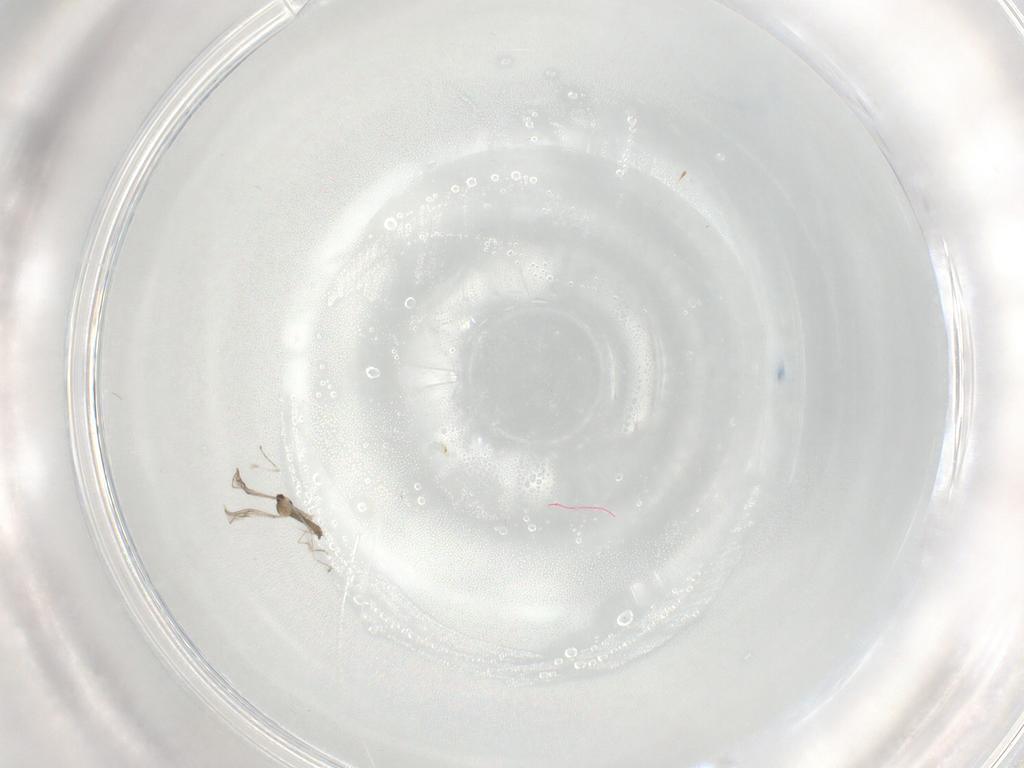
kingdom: Animalia
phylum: Arthropoda
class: Insecta
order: Diptera
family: Cecidomyiidae
